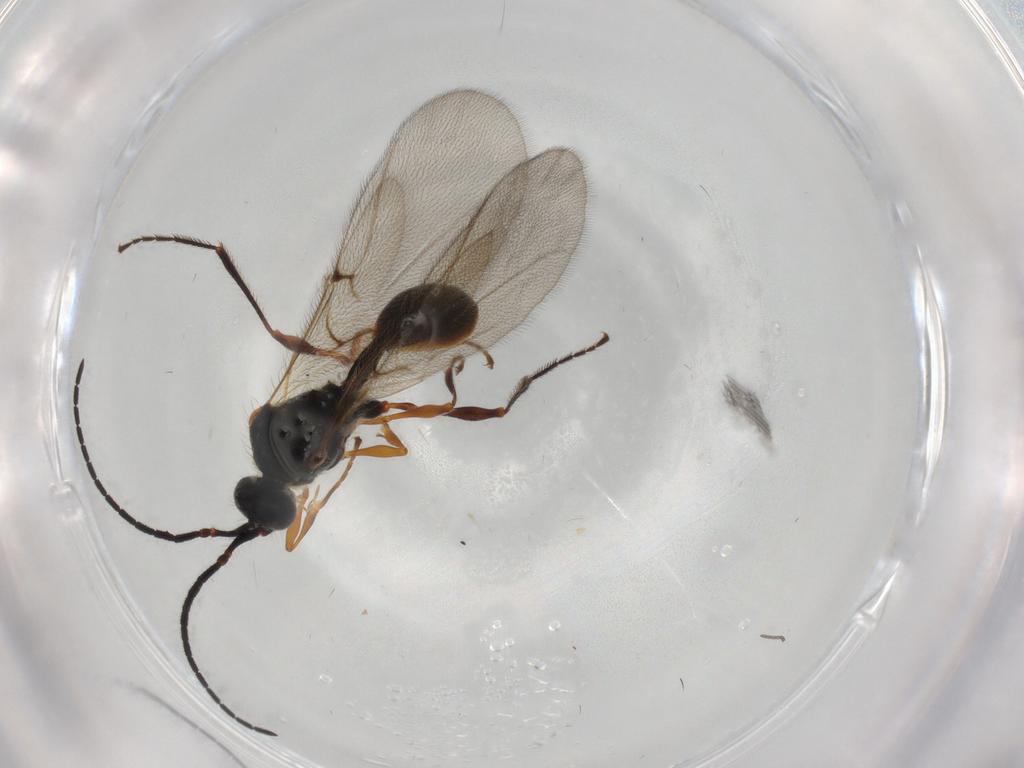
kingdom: Animalia
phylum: Arthropoda
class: Insecta
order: Hymenoptera
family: Diapriidae
